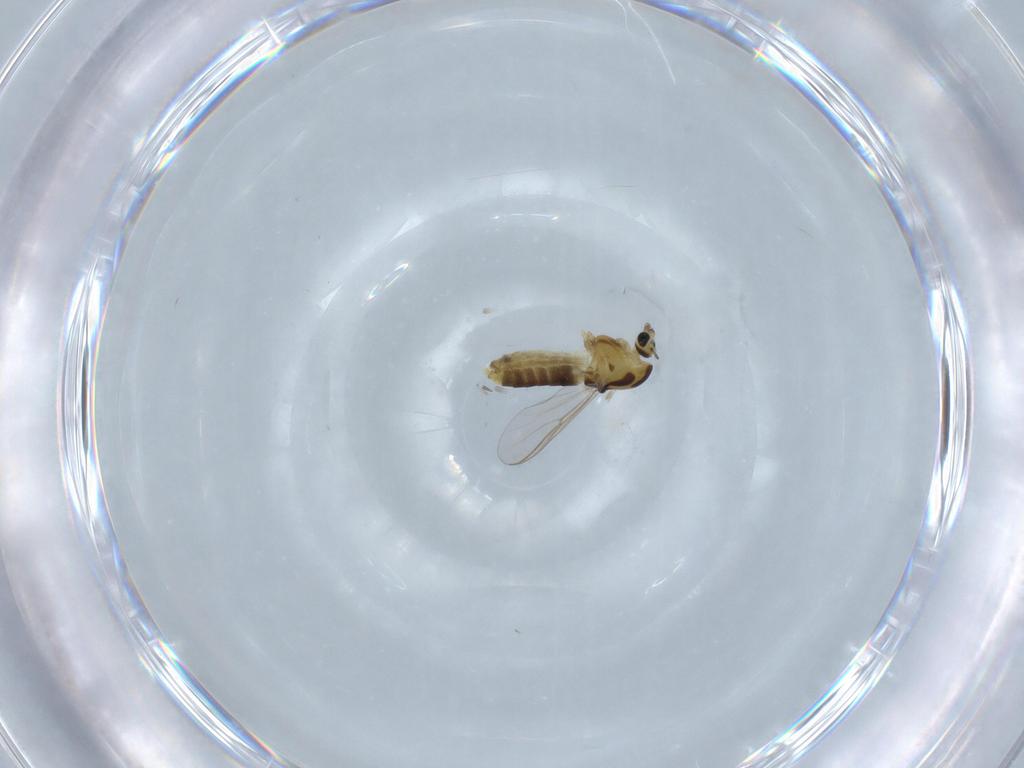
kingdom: Animalia
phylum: Arthropoda
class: Insecta
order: Diptera
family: Chironomidae
